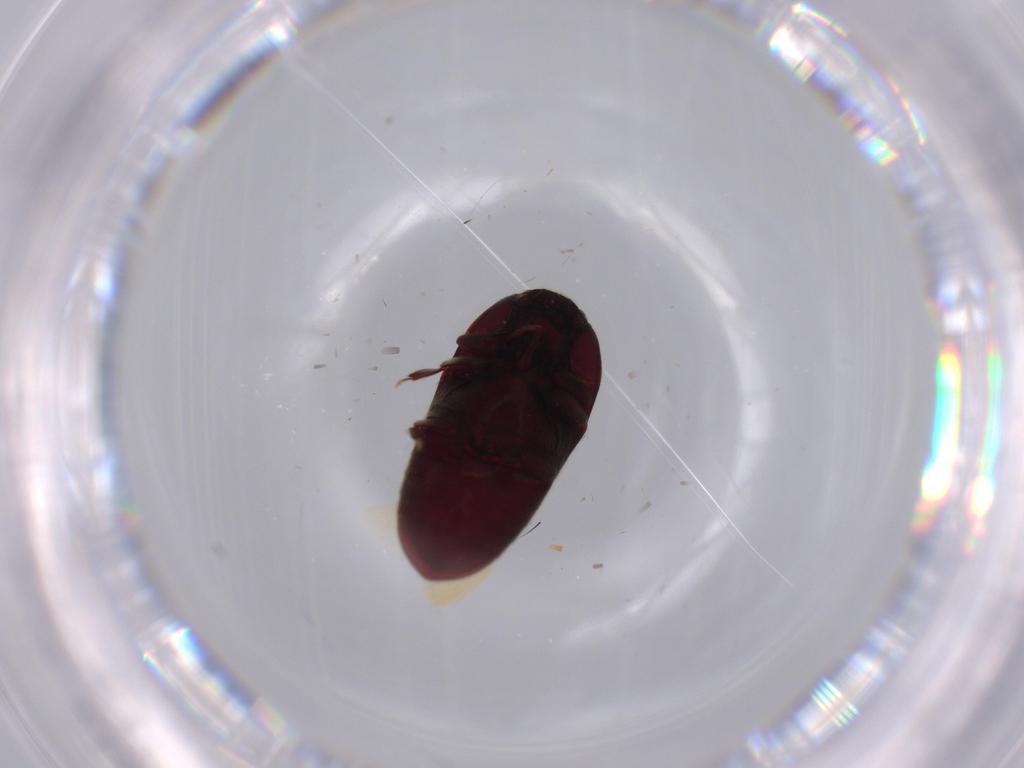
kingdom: Animalia
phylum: Arthropoda
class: Insecta
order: Coleoptera
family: Throscidae
